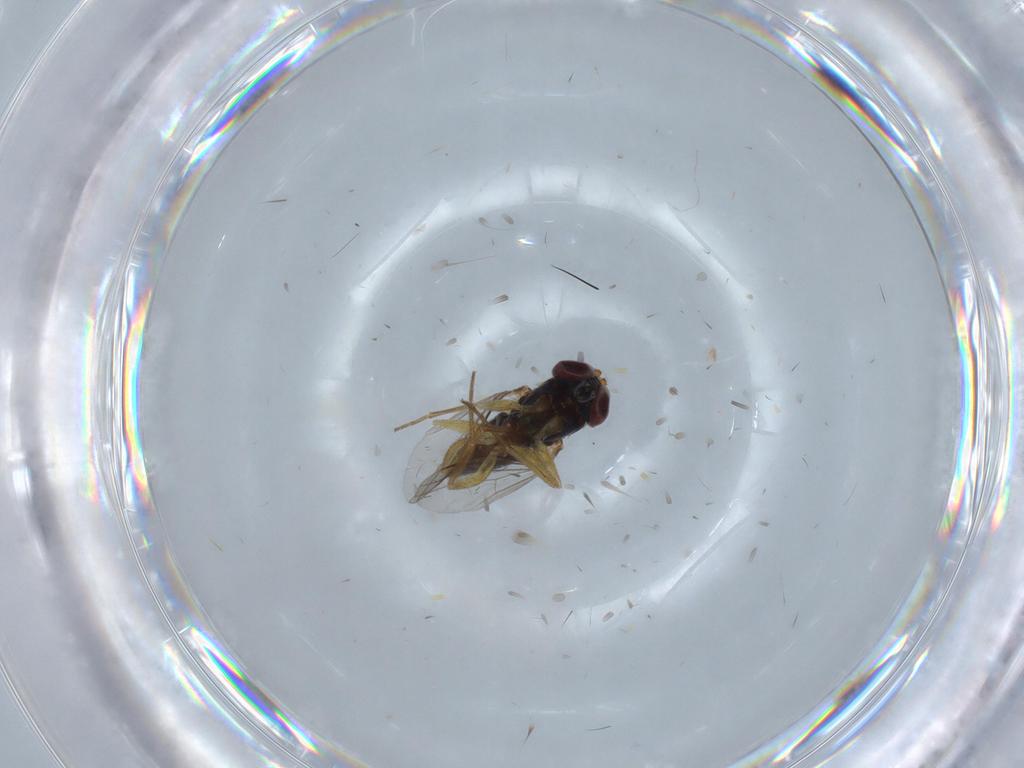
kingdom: Animalia
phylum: Arthropoda
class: Insecta
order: Diptera
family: Dolichopodidae
